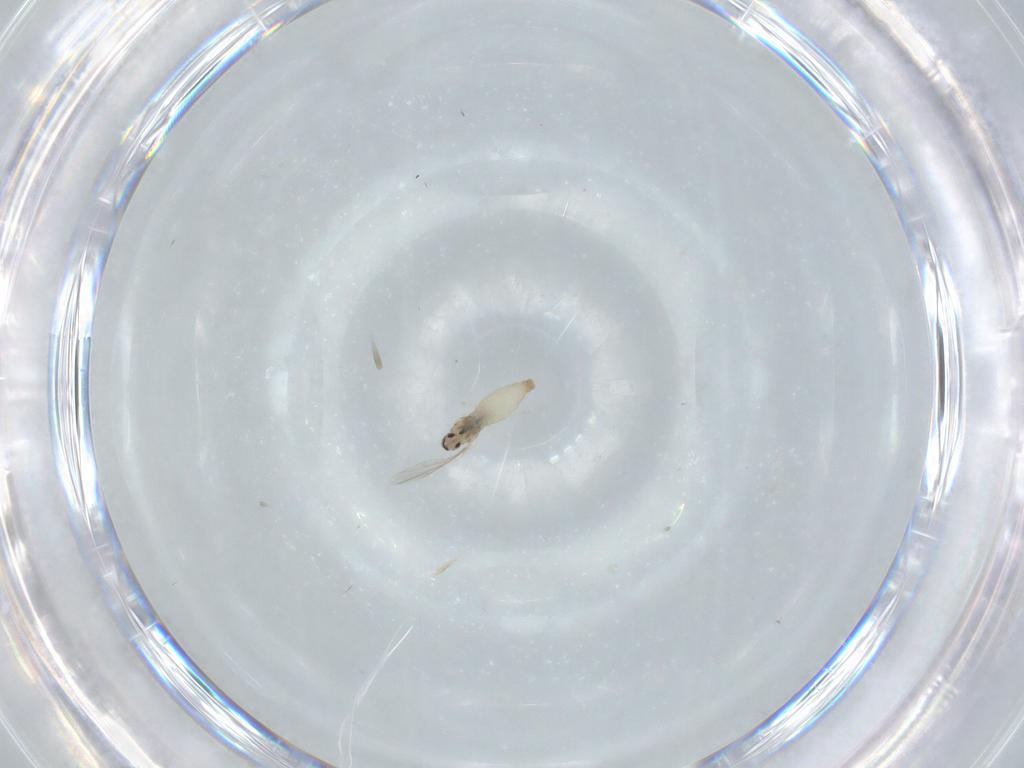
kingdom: Animalia
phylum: Arthropoda
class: Insecta
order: Diptera
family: Cecidomyiidae
